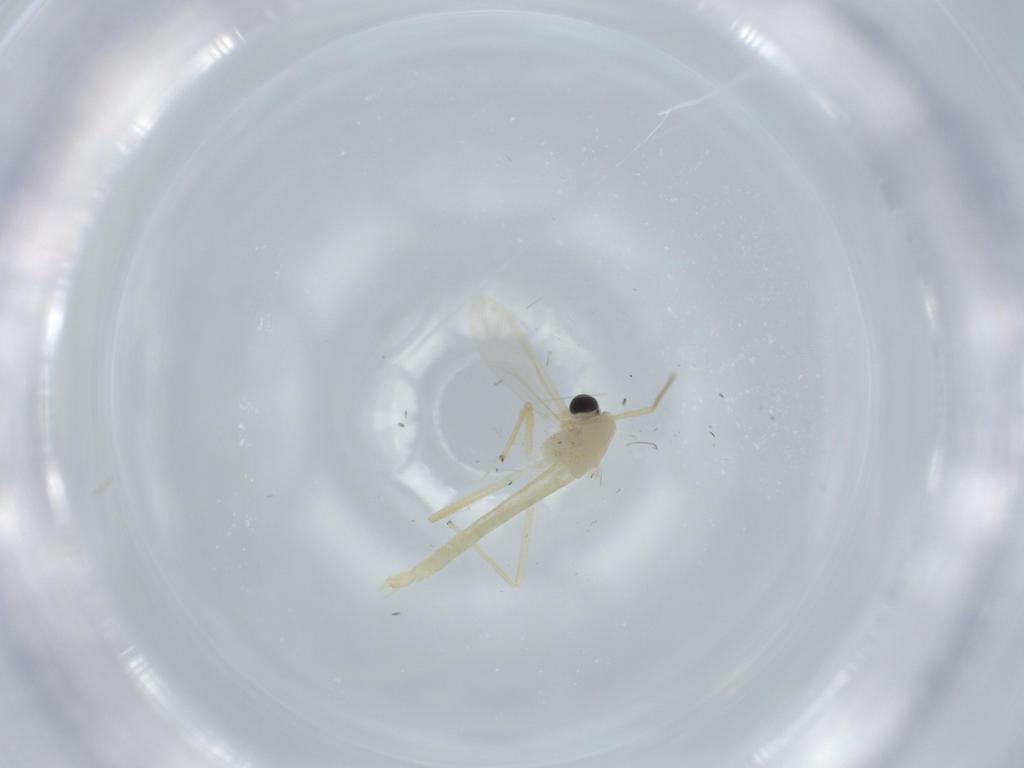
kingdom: Animalia
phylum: Arthropoda
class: Insecta
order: Diptera
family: Chironomidae
